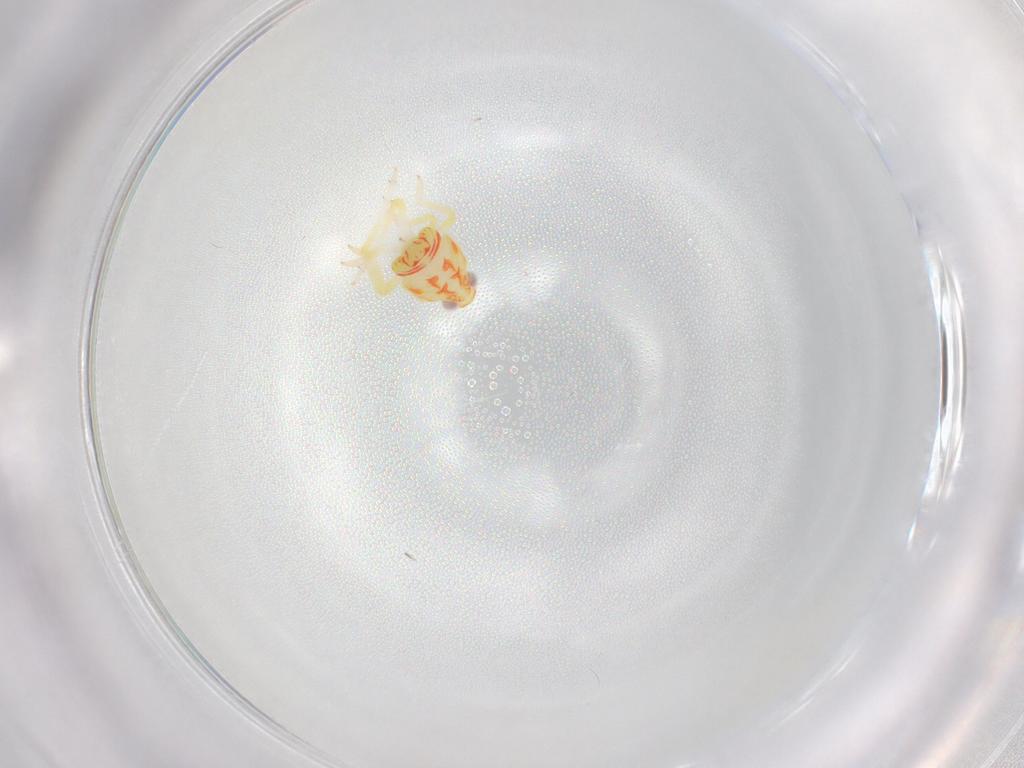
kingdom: Animalia
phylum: Arthropoda
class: Insecta
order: Hemiptera
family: Tropiduchidae
